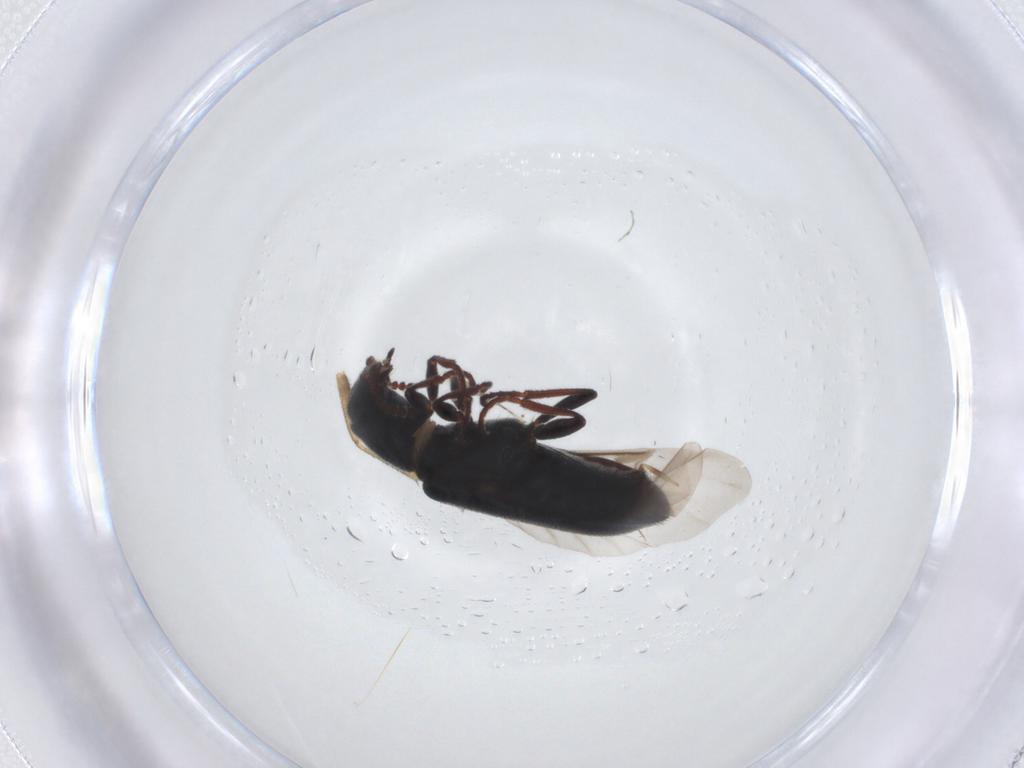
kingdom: Animalia
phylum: Arthropoda
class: Insecta
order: Coleoptera
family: Melyridae
